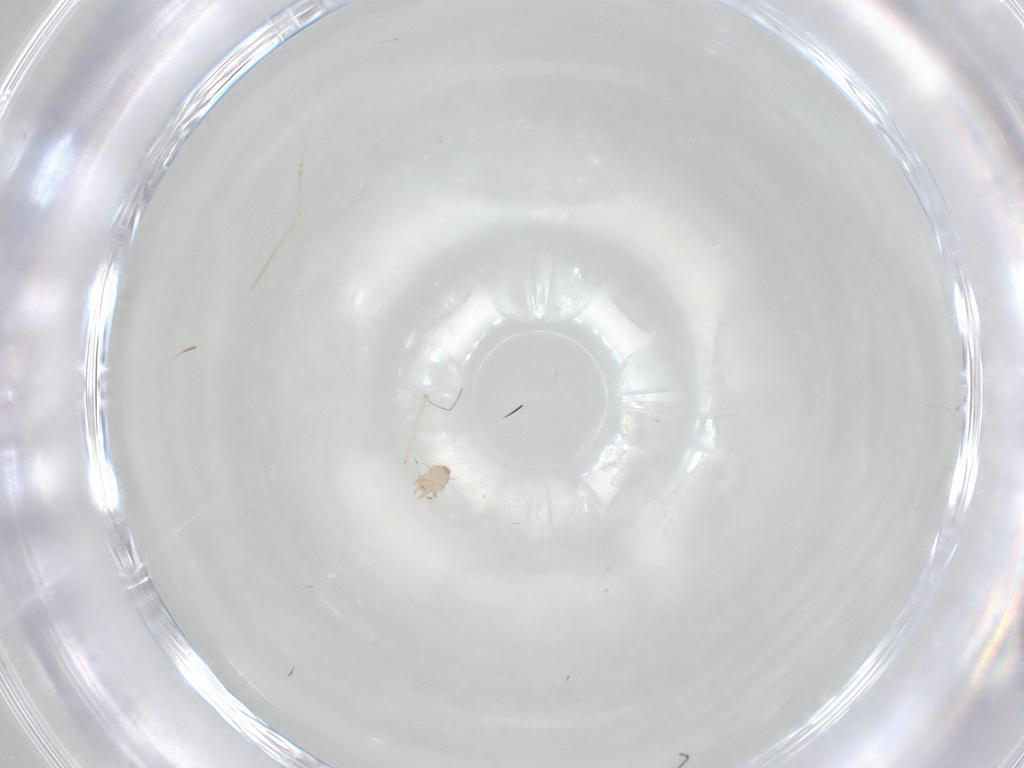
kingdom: Animalia
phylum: Arthropoda
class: Insecta
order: Diptera
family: Cecidomyiidae
